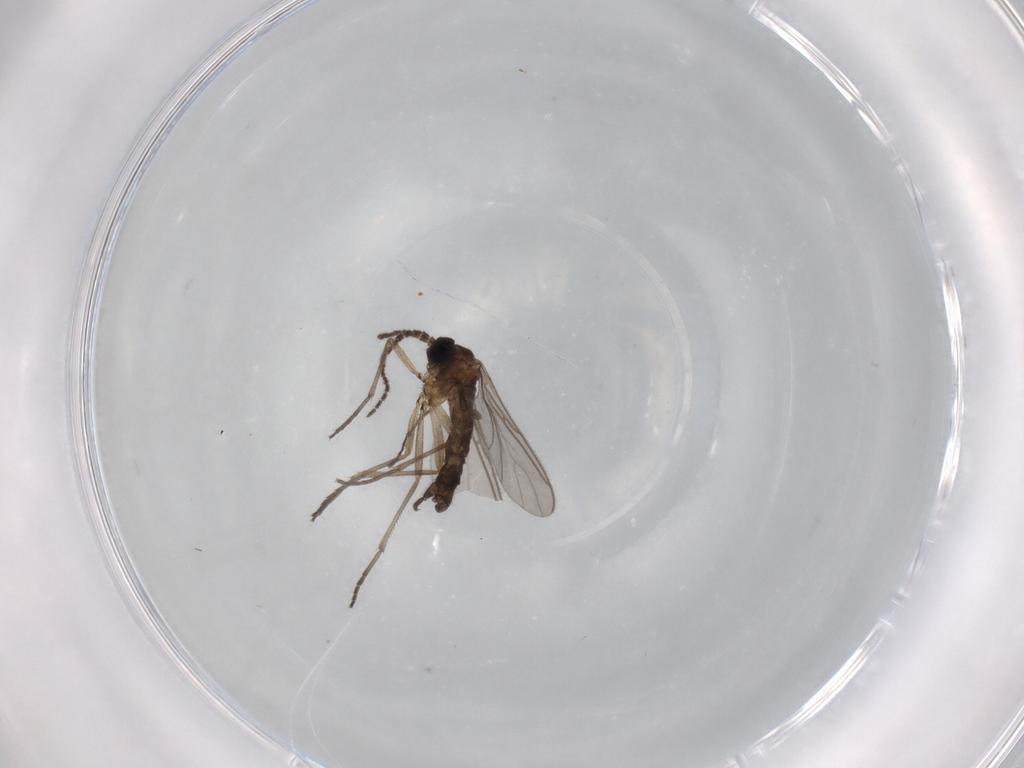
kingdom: Animalia
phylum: Arthropoda
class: Insecta
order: Diptera
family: Sciaridae
